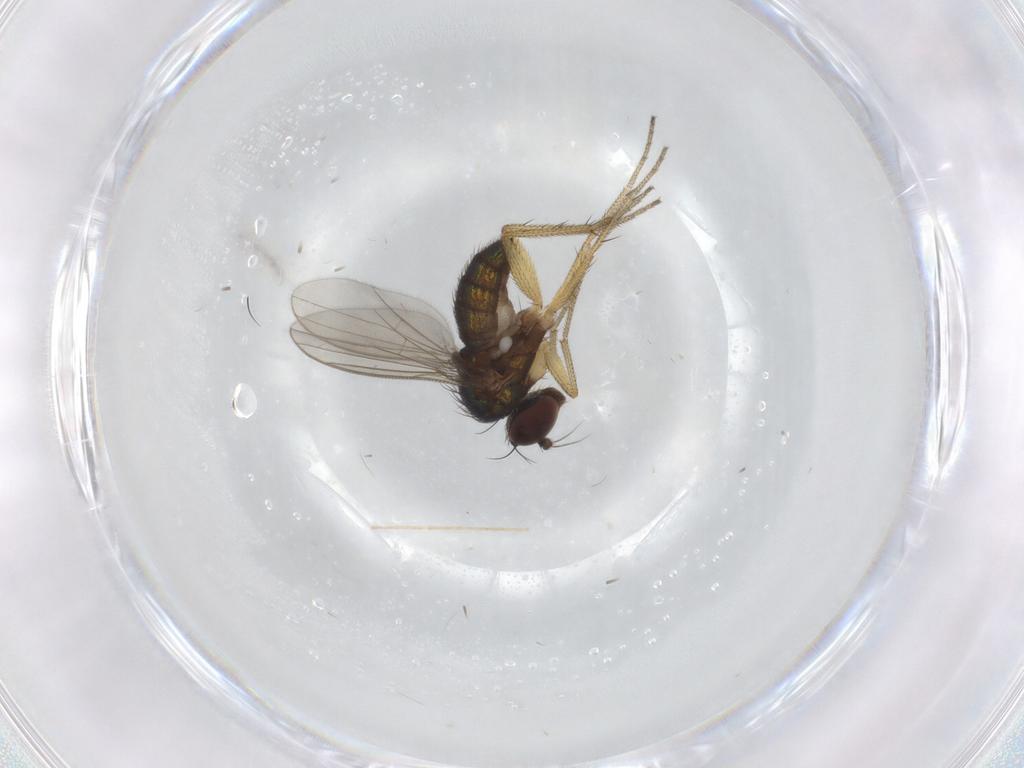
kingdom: Animalia
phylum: Arthropoda
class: Insecta
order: Diptera
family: Dolichopodidae
